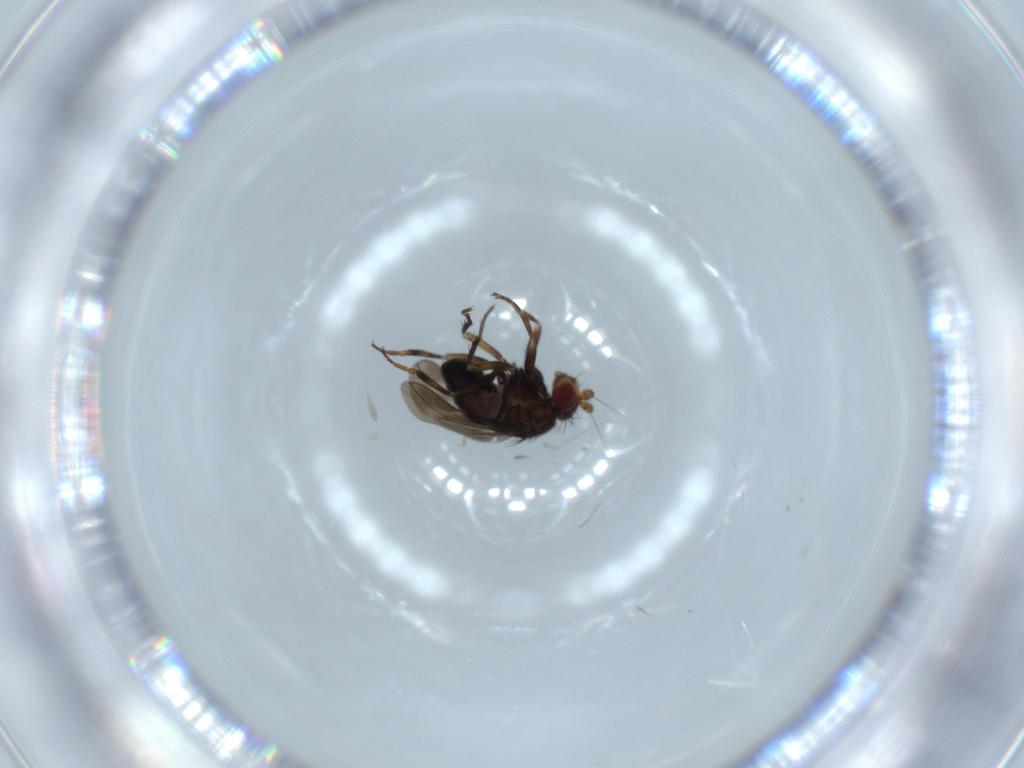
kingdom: Animalia
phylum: Arthropoda
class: Insecta
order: Diptera
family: Sphaeroceridae
